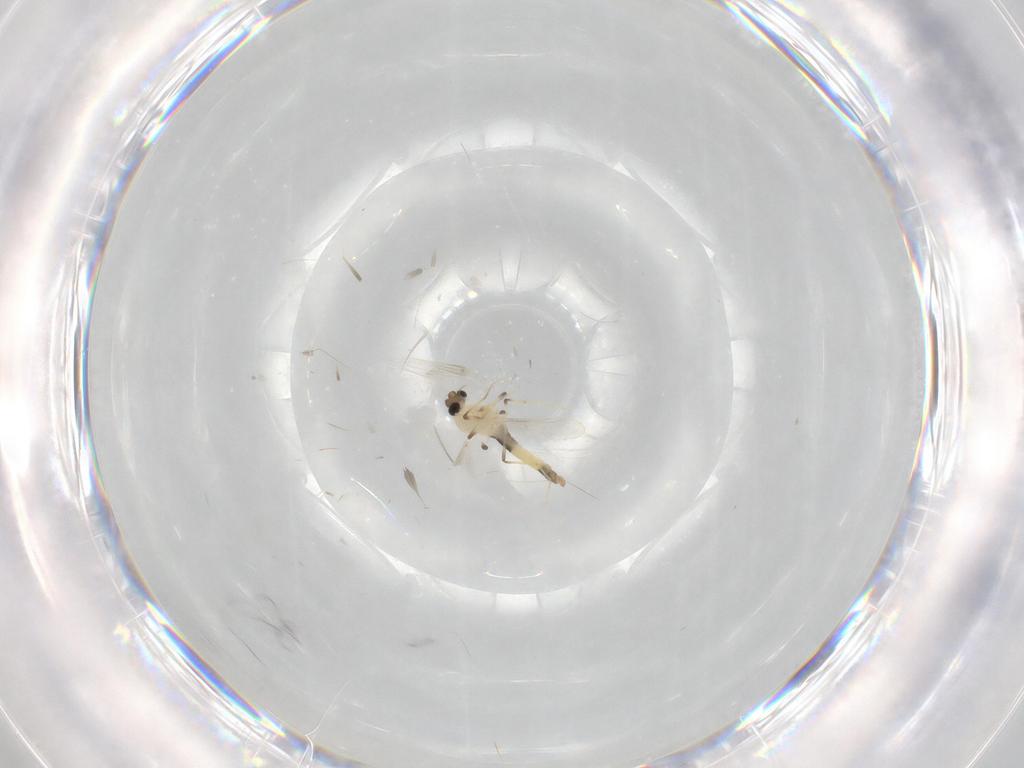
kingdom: Animalia
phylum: Arthropoda
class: Insecta
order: Diptera
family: Chironomidae
